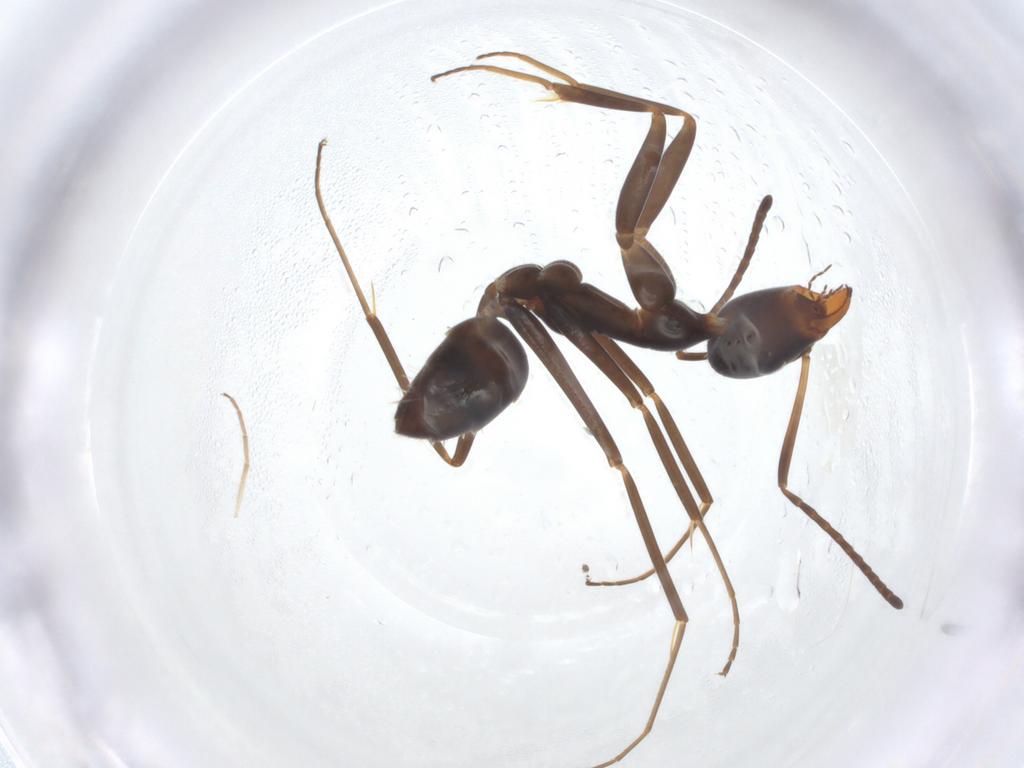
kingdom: Animalia
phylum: Arthropoda
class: Insecta
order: Hymenoptera
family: Formicidae
